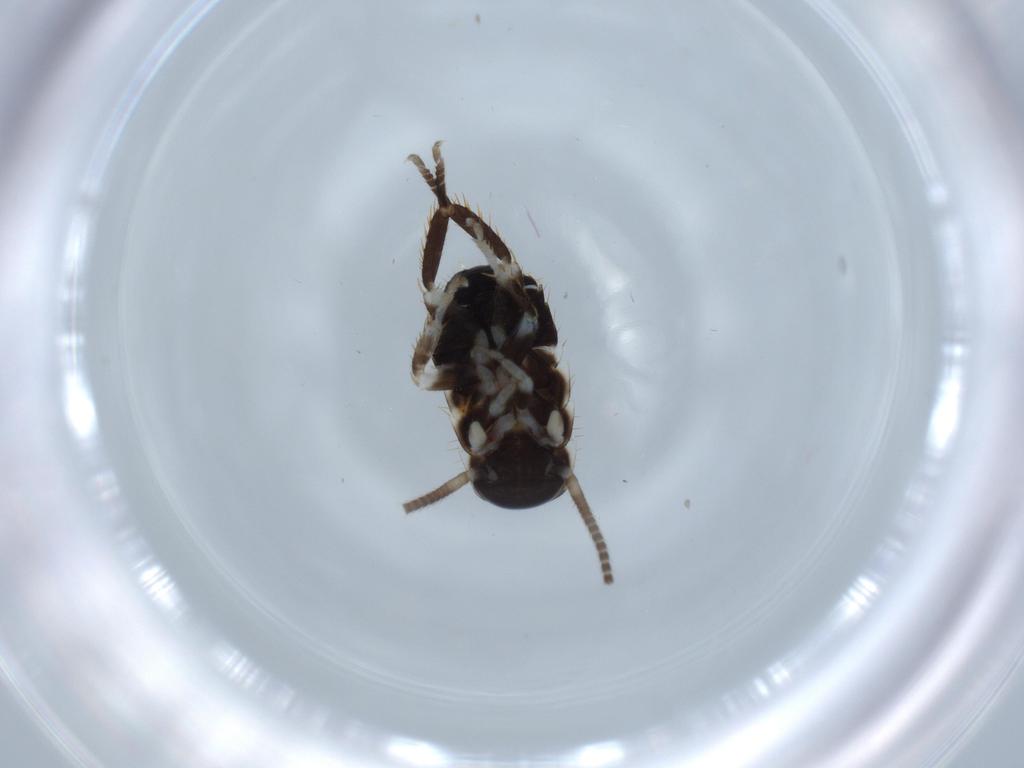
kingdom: Animalia
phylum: Arthropoda
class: Insecta
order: Blattodea
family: Ectobiidae
